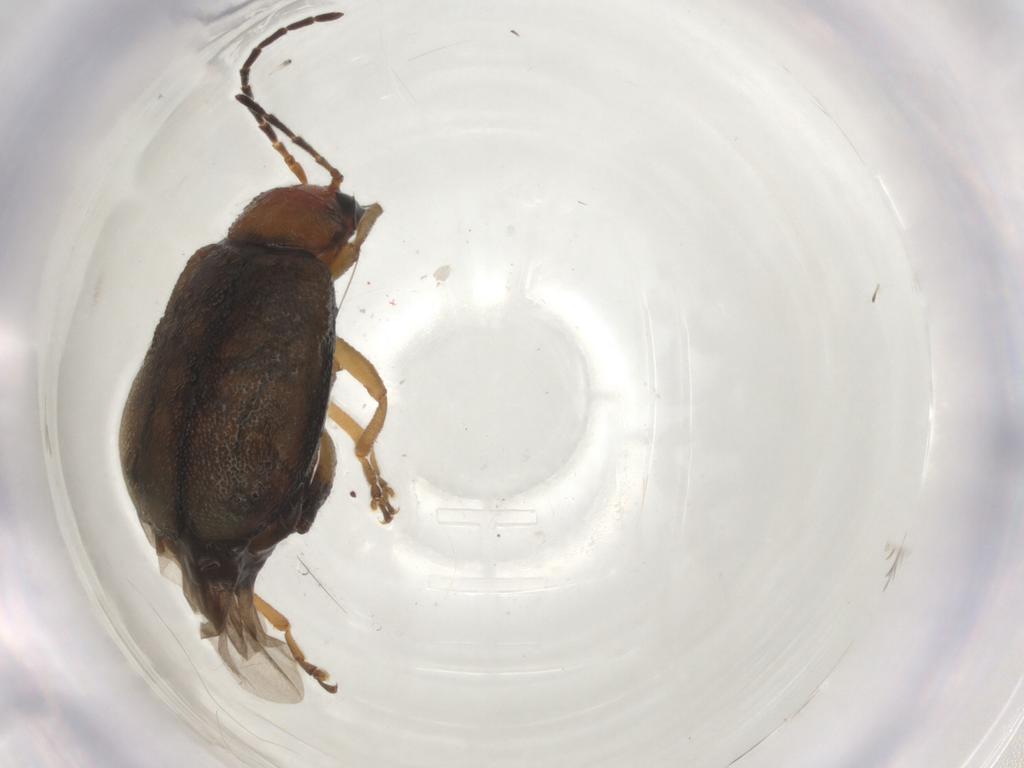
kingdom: Animalia
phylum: Arthropoda
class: Insecta
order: Coleoptera
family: Chrysomelidae
